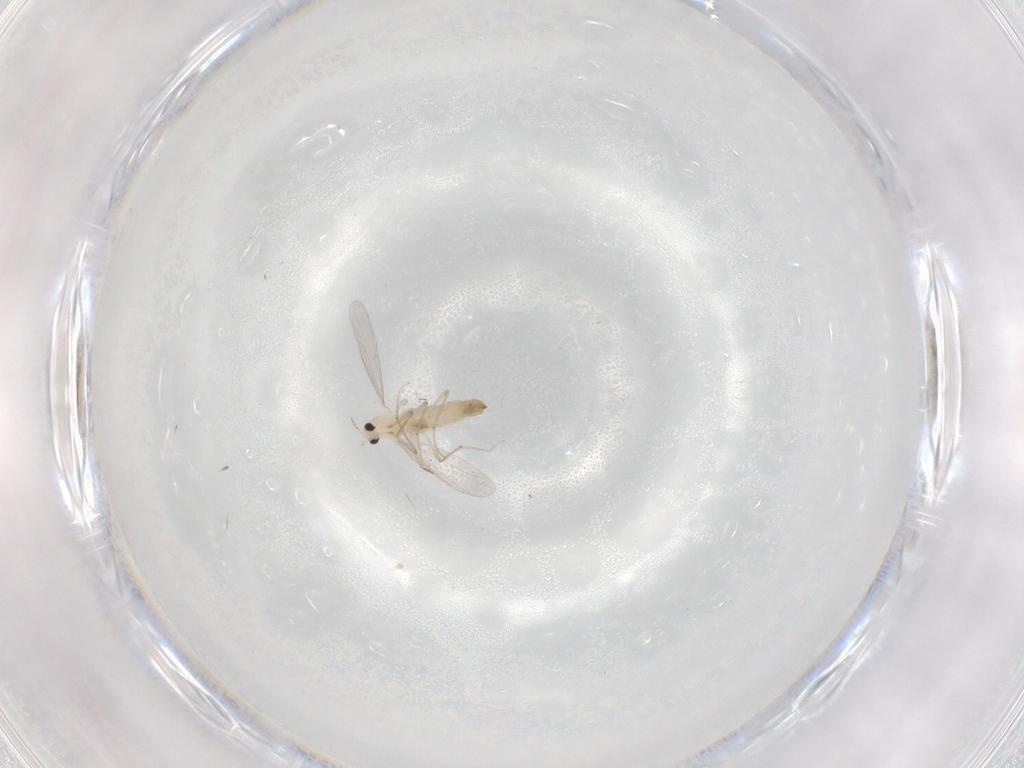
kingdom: Animalia
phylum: Arthropoda
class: Insecta
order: Diptera
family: Chironomidae
